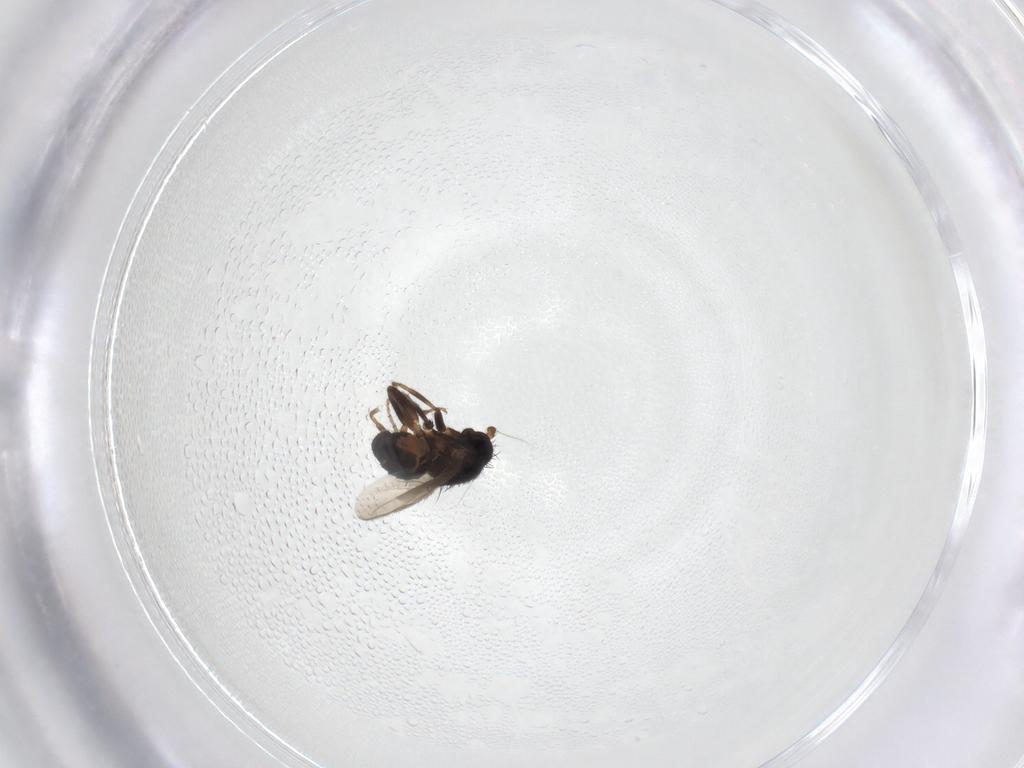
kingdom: Animalia
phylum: Arthropoda
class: Insecta
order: Diptera
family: Sphaeroceridae
